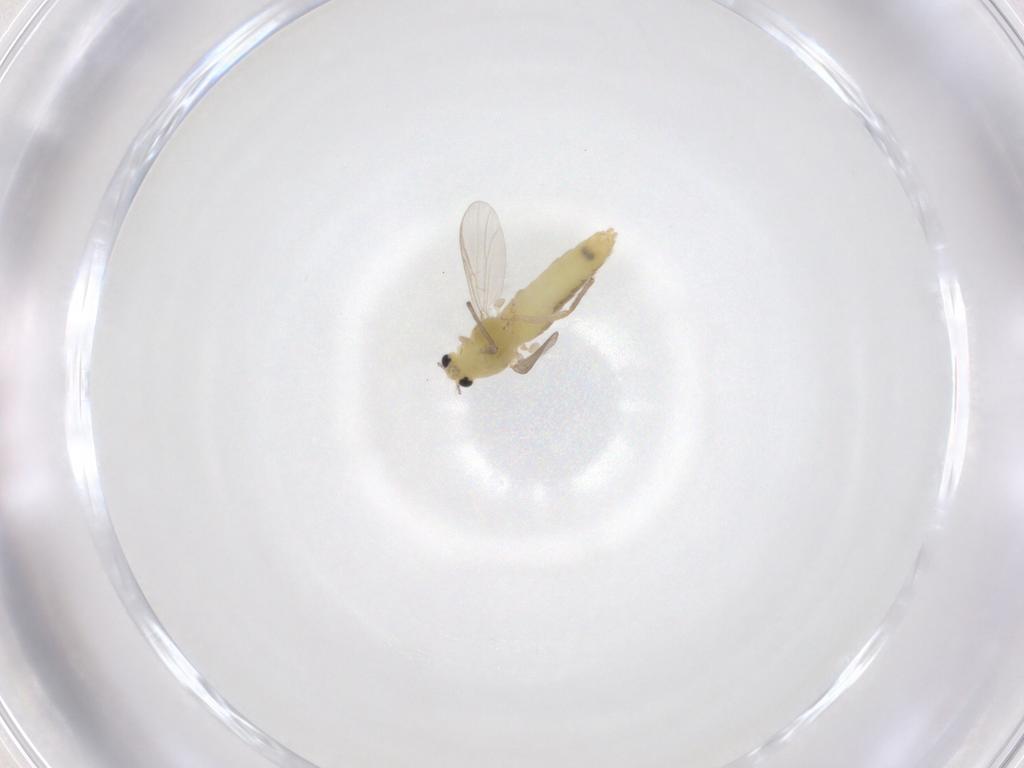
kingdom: Animalia
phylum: Arthropoda
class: Insecta
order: Diptera
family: Chironomidae
